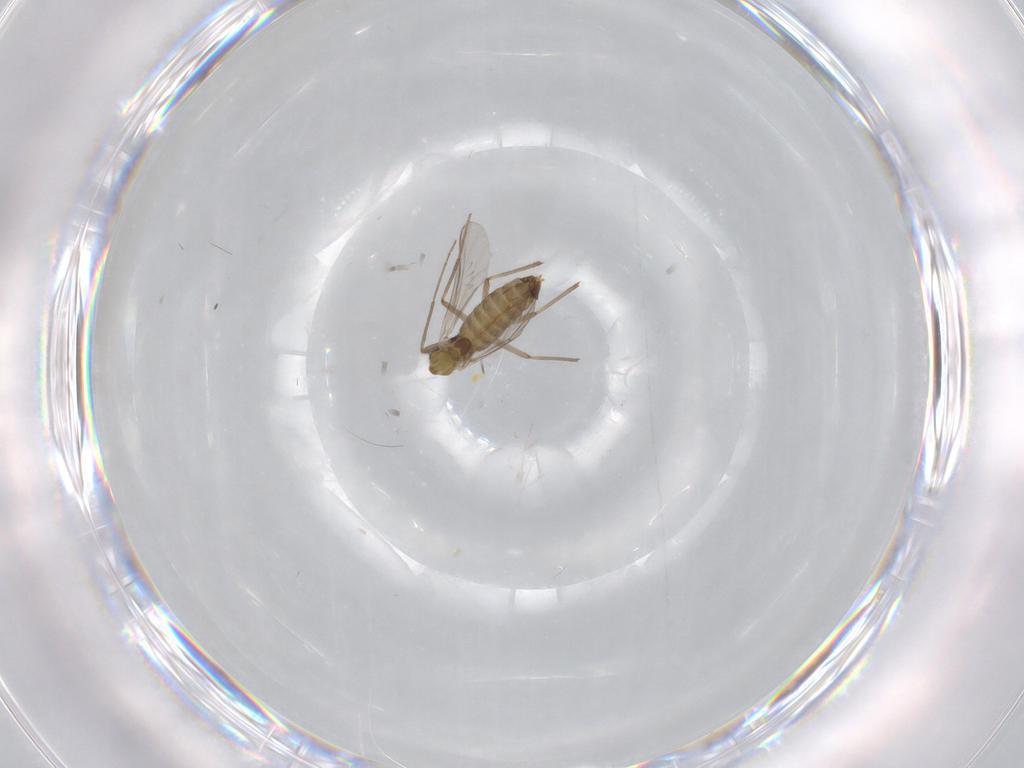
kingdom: Animalia
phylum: Arthropoda
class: Insecta
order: Diptera
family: Chironomidae
